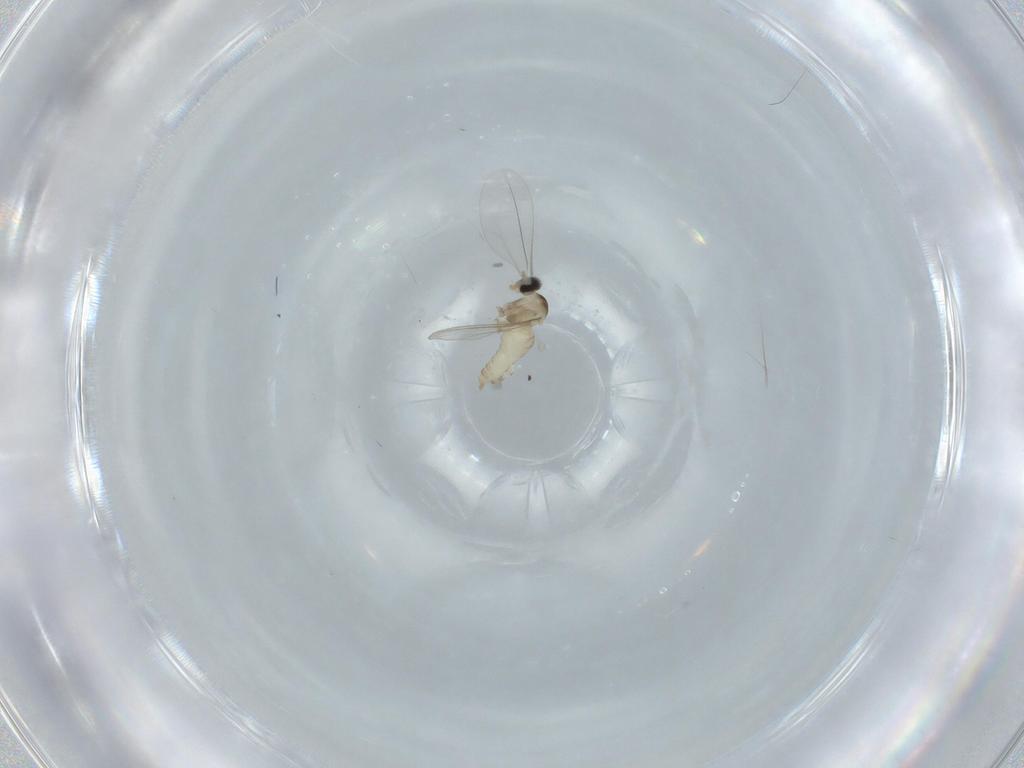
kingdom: Animalia
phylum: Arthropoda
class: Insecta
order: Diptera
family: Cecidomyiidae
